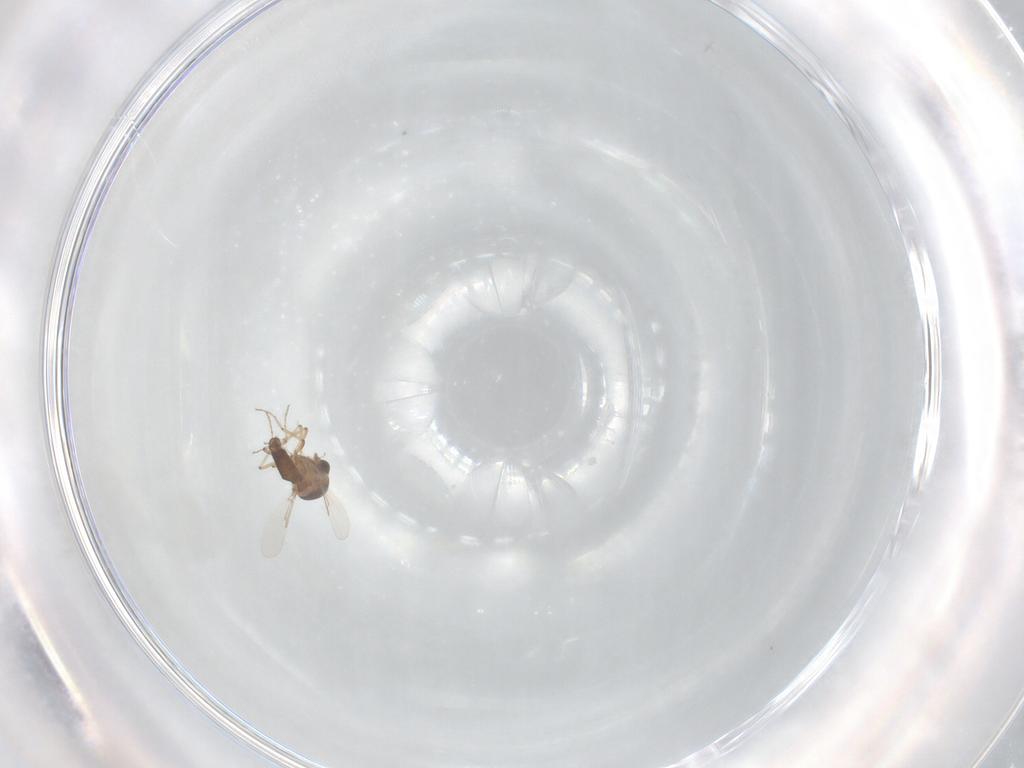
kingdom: Animalia
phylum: Arthropoda
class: Insecta
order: Diptera
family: Ceratopogonidae
